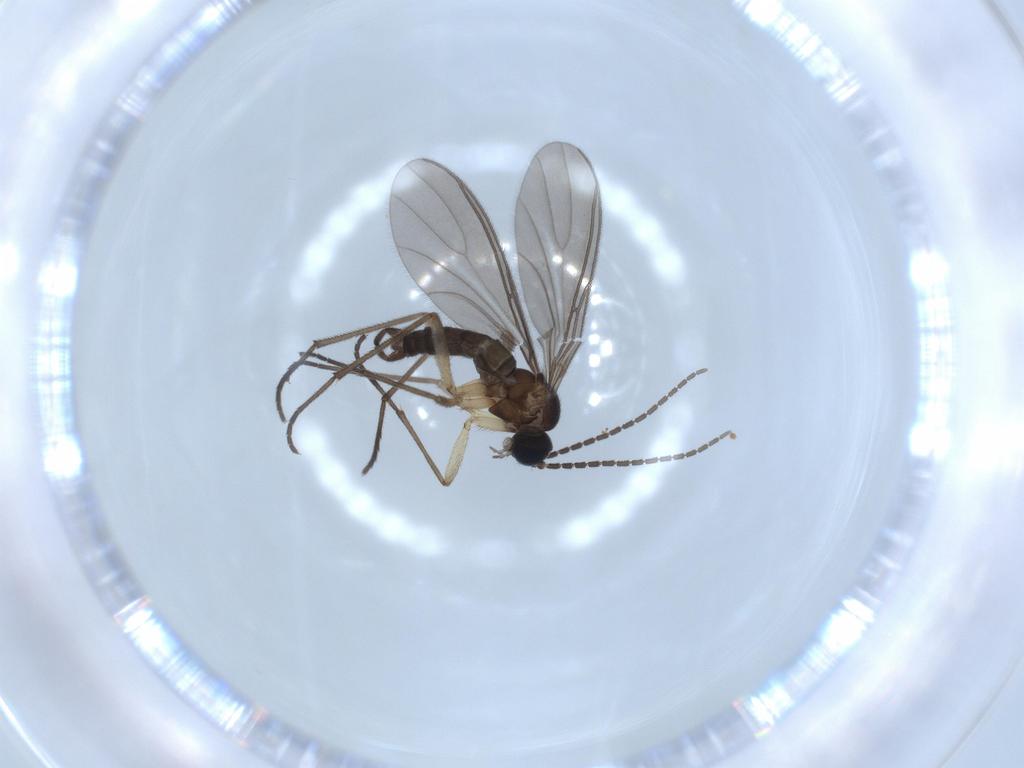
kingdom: Animalia
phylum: Arthropoda
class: Insecta
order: Diptera
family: Sciaridae
